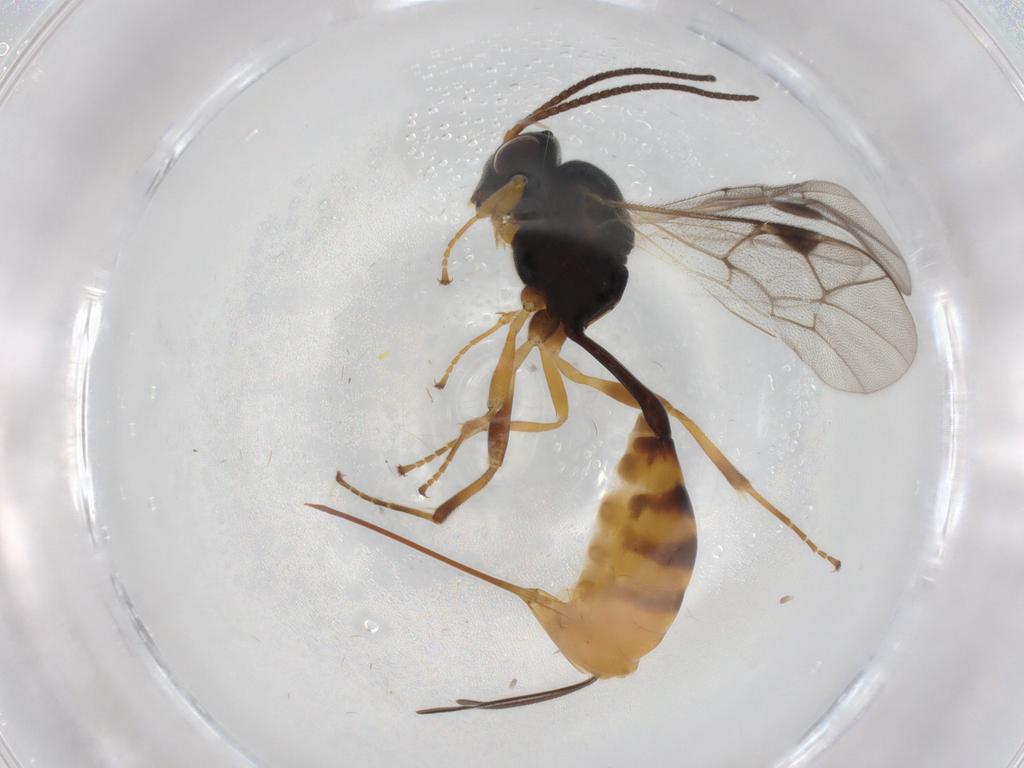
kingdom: Animalia
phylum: Arthropoda
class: Insecta
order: Hymenoptera
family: Ichneumonidae
